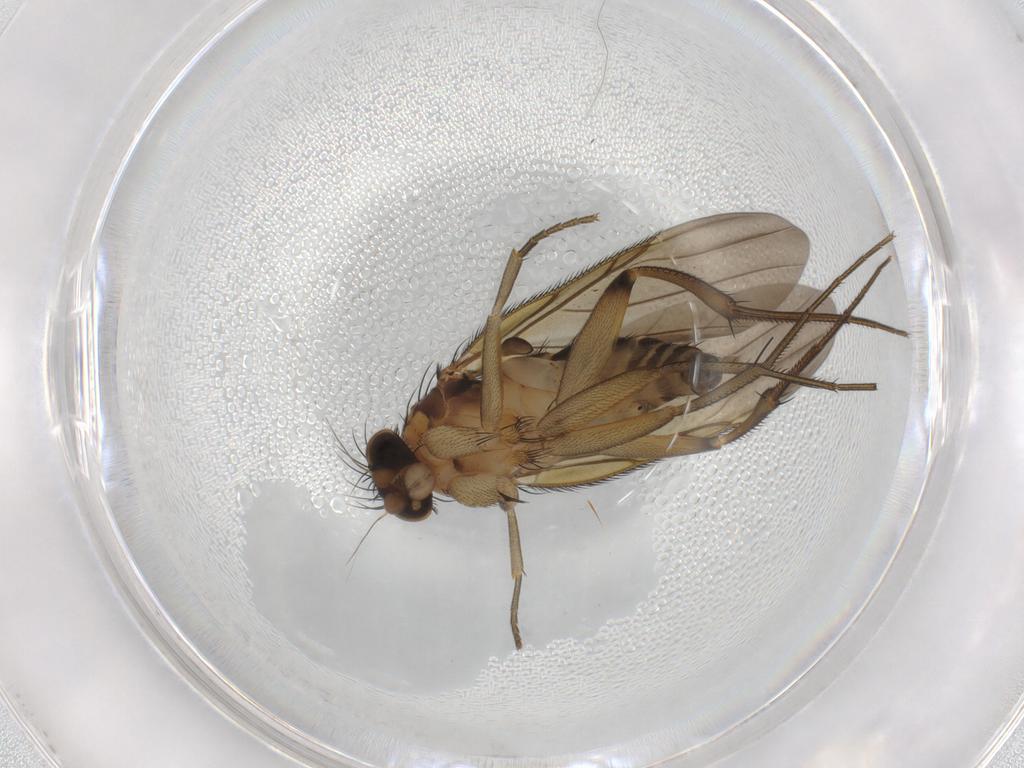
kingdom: Animalia
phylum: Arthropoda
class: Insecta
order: Diptera
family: Phoridae
